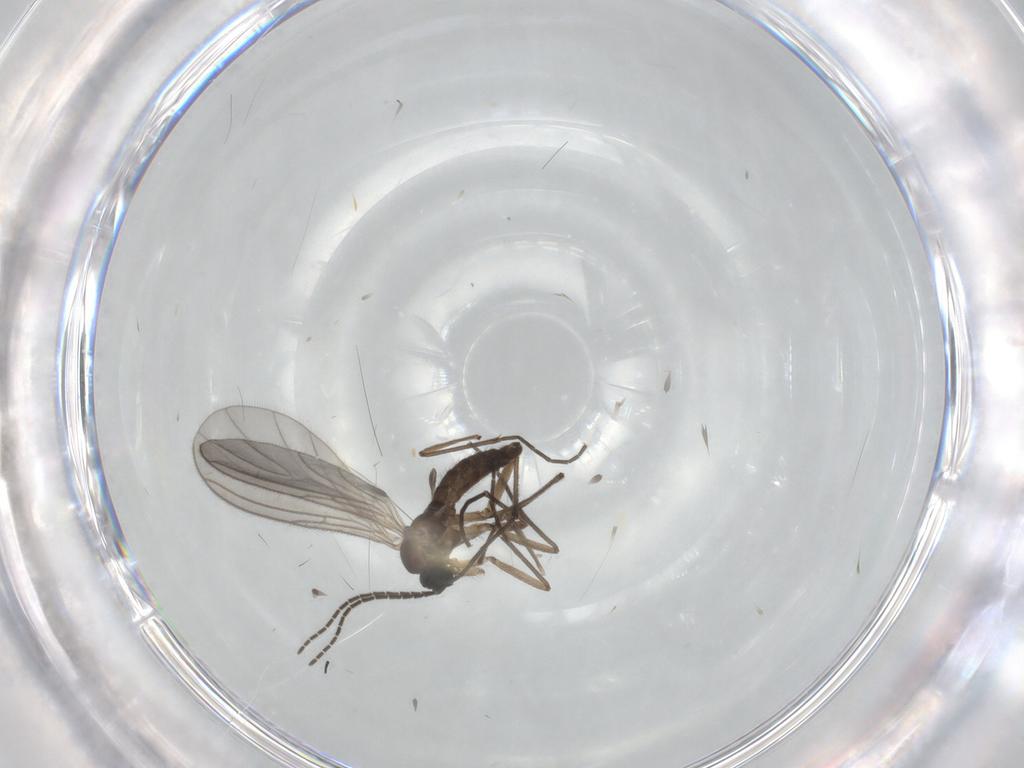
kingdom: Animalia
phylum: Arthropoda
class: Insecta
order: Diptera
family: Sciaridae
